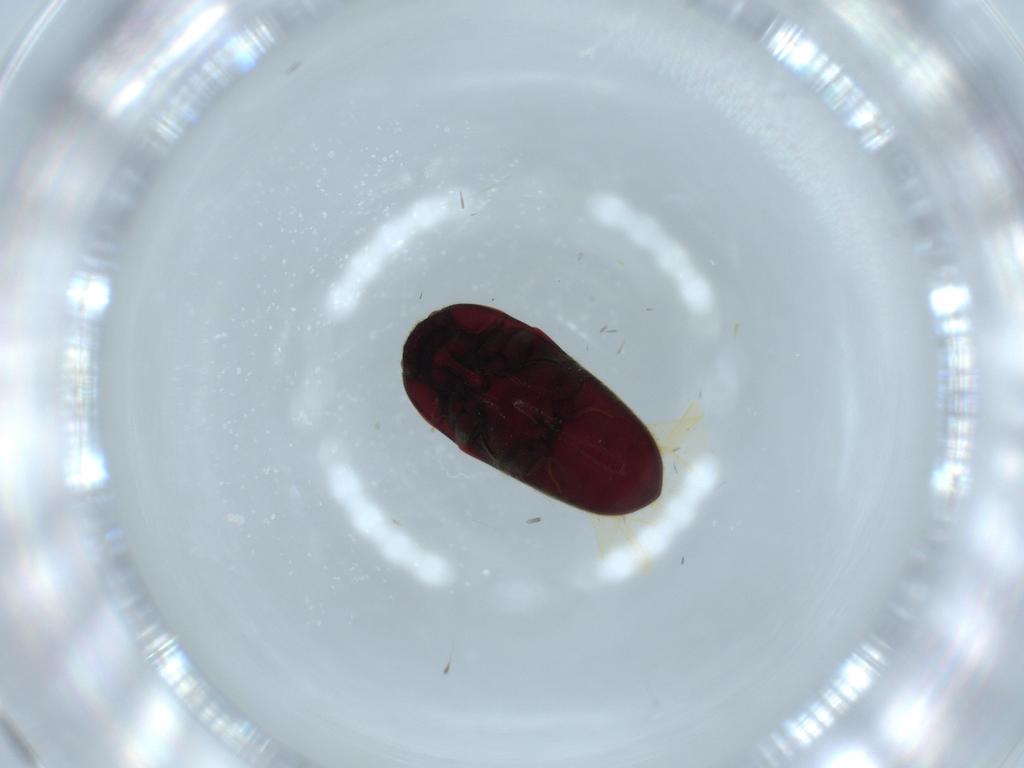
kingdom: Animalia
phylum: Arthropoda
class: Insecta
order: Coleoptera
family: Throscidae
